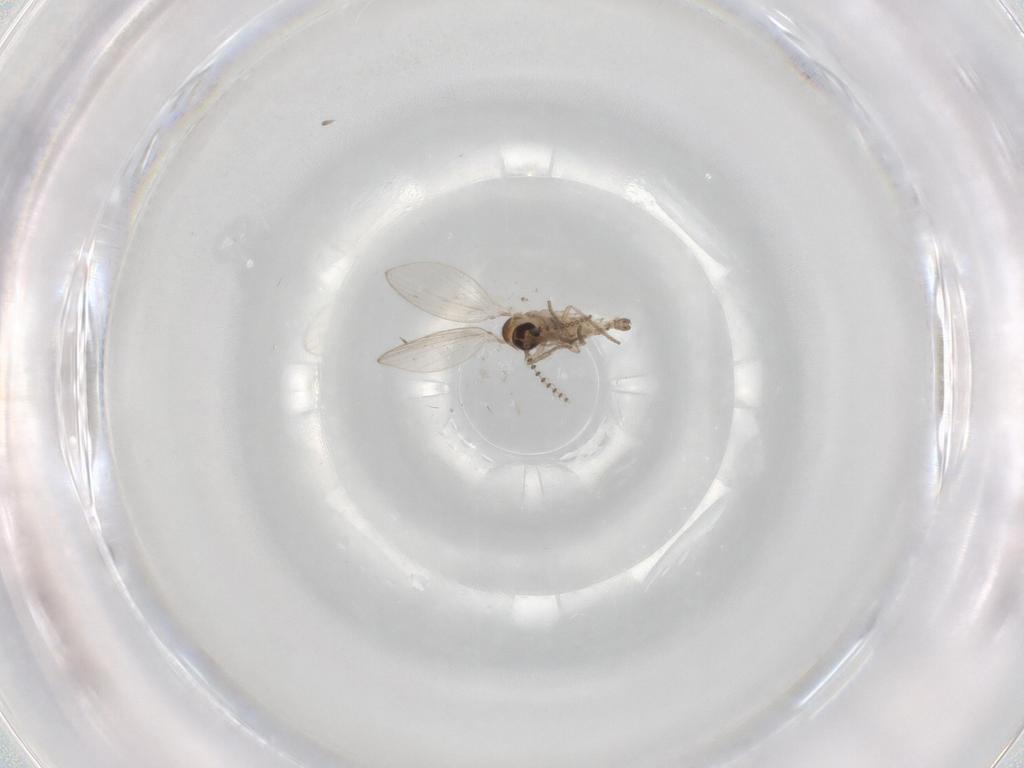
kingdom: Animalia
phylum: Arthropoda
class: Insecta
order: Diptera
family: Psychodidae
